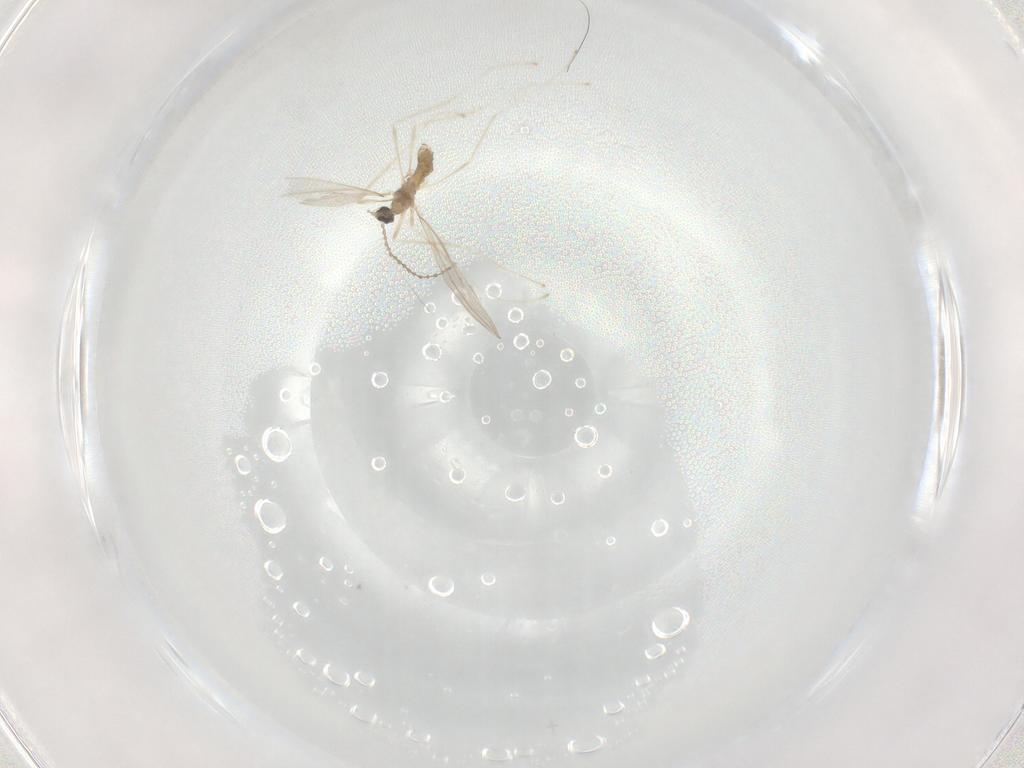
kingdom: Animalia
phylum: Arthropoda
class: Insecta
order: Diptera
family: Cecidomyiidae
